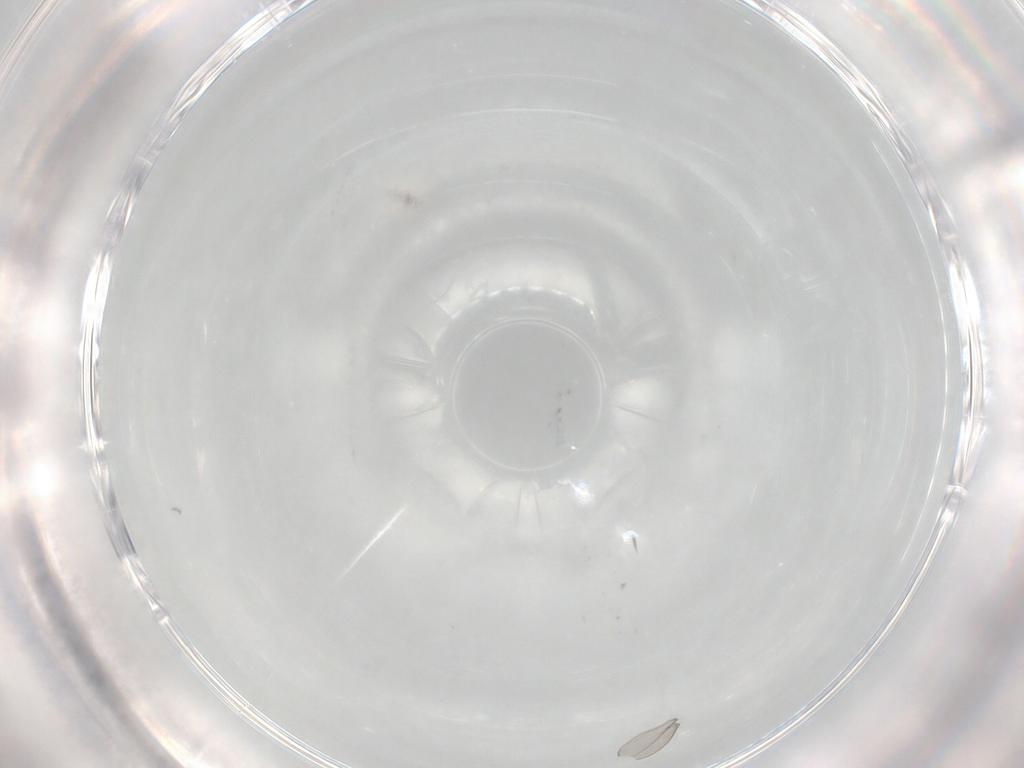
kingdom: Animalia
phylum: Arthropoda
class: Insecta
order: Diptera
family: Cecidomyiidae
